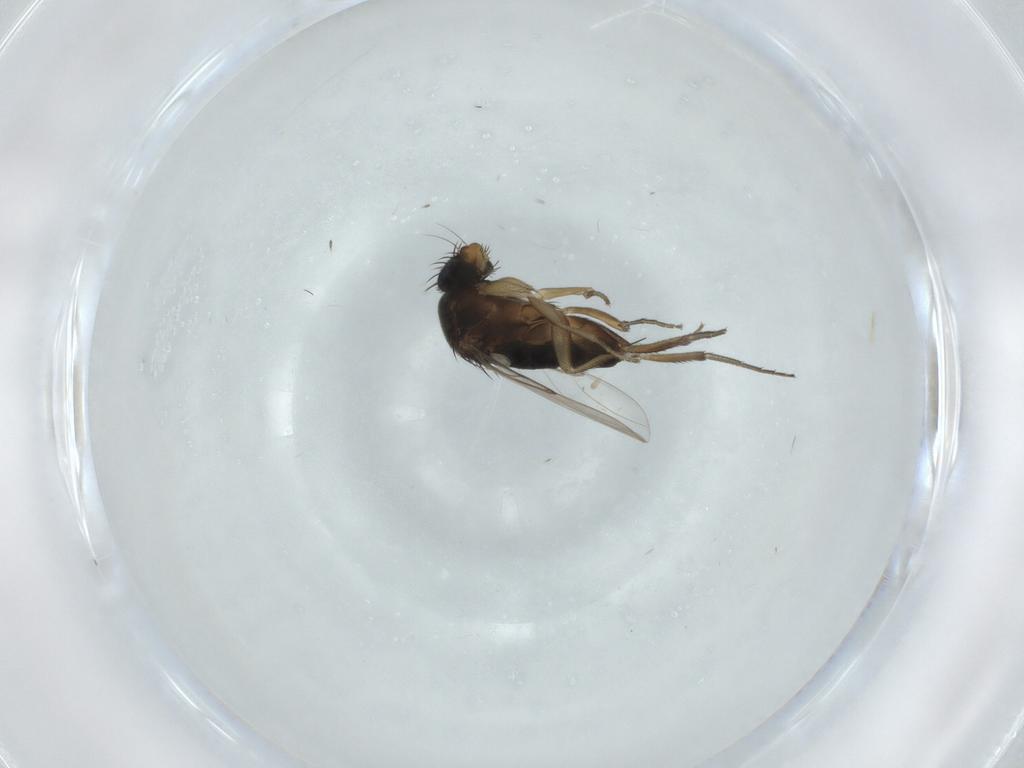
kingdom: Animalia
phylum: Arthropoda
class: Insecta
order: Diptera
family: Phoridae
